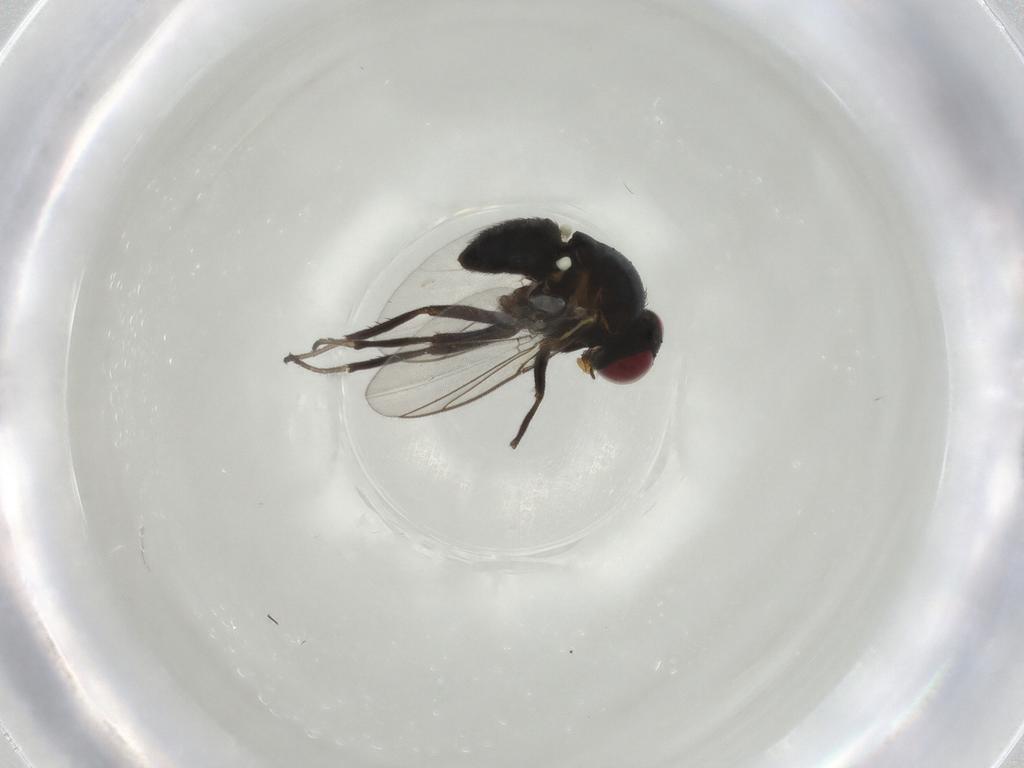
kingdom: Animalia
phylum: Arthropoda
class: Insecta
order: Diptera
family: Agromyzidae
